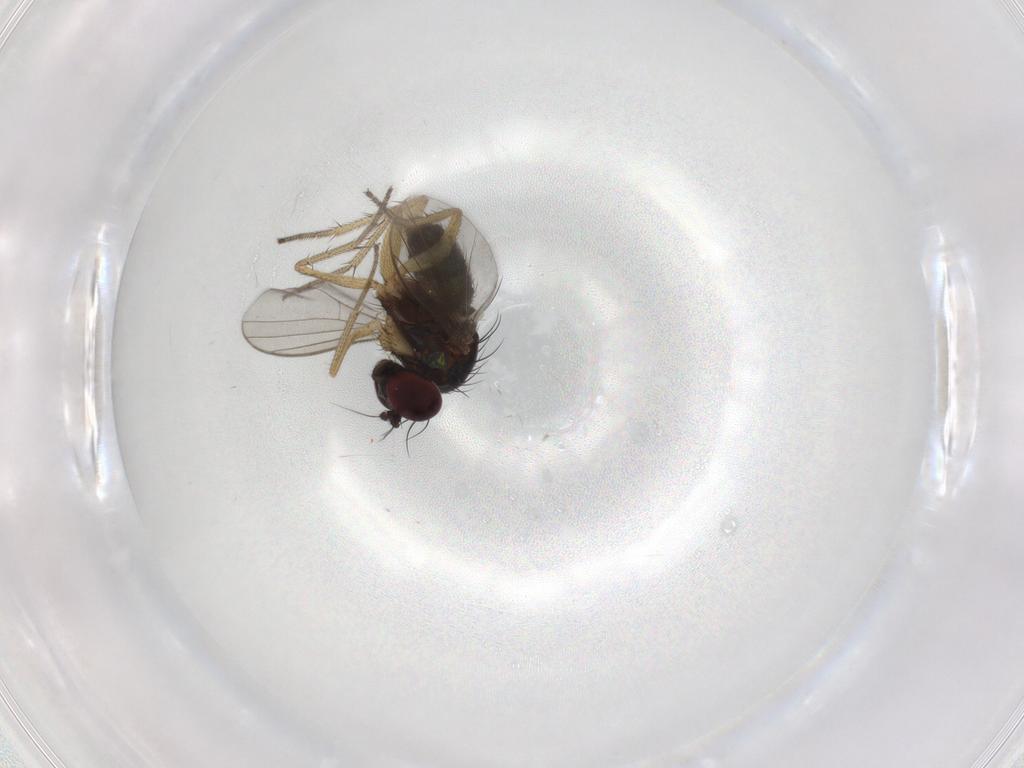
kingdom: Animalia
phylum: Arthropoda
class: Insecta
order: Diptera
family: Dolichopodidae
